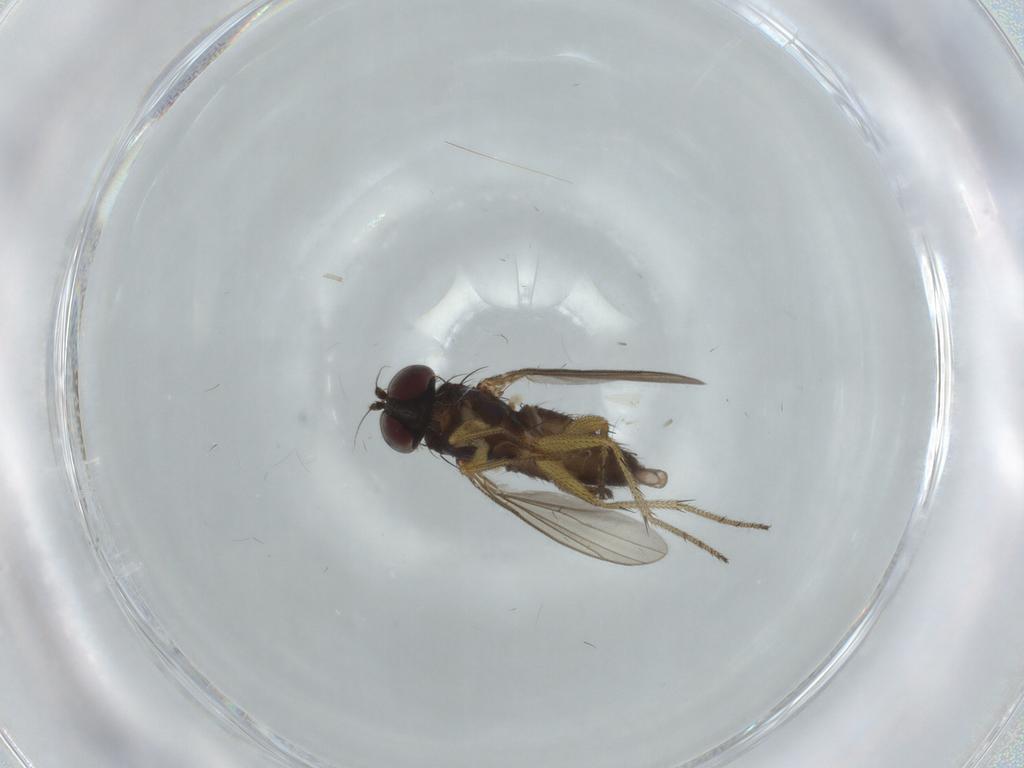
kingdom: Animalia
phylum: Arthropoda
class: Insecta
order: Diptera
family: Dolichopodidae
